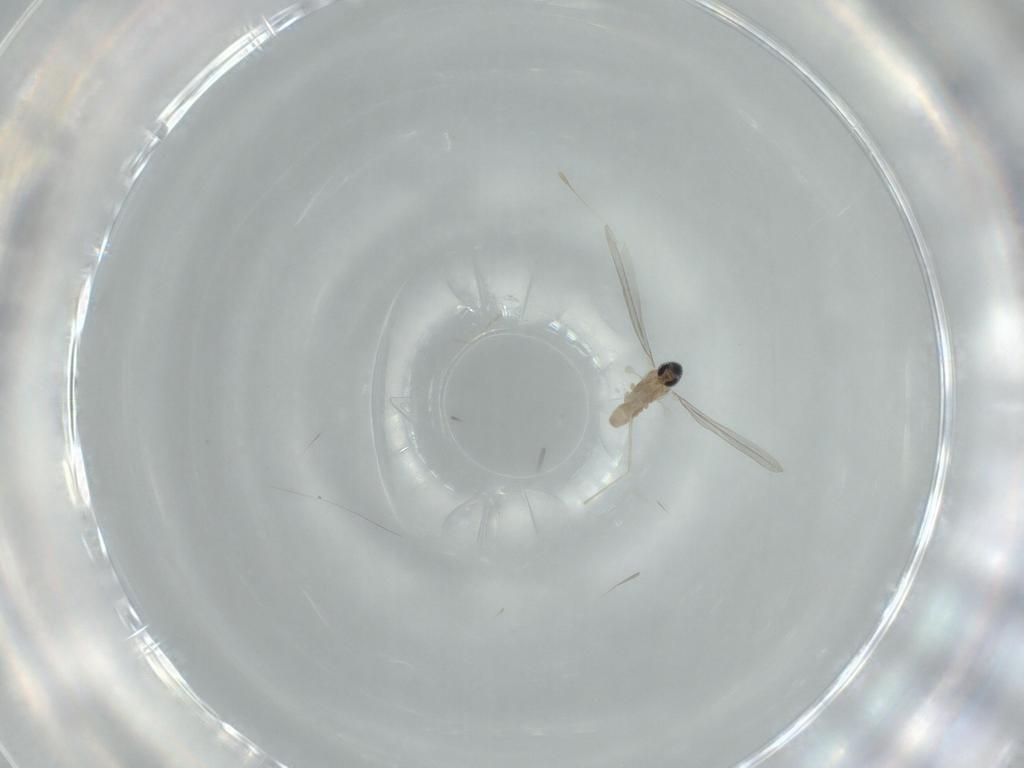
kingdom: Animalia
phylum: Arthropoda
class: Insecta
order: Diptera
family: Cecidomyiidae
